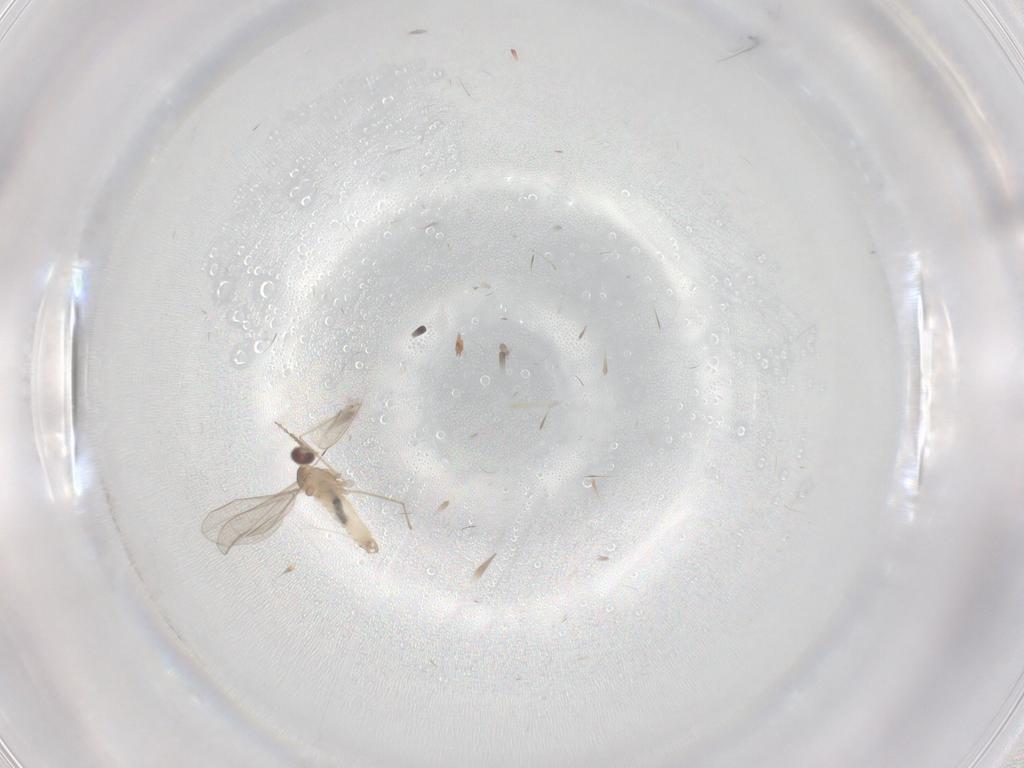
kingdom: Animalia
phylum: Arthropoda
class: Insecta
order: Diptera
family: Cecidomyiidae
